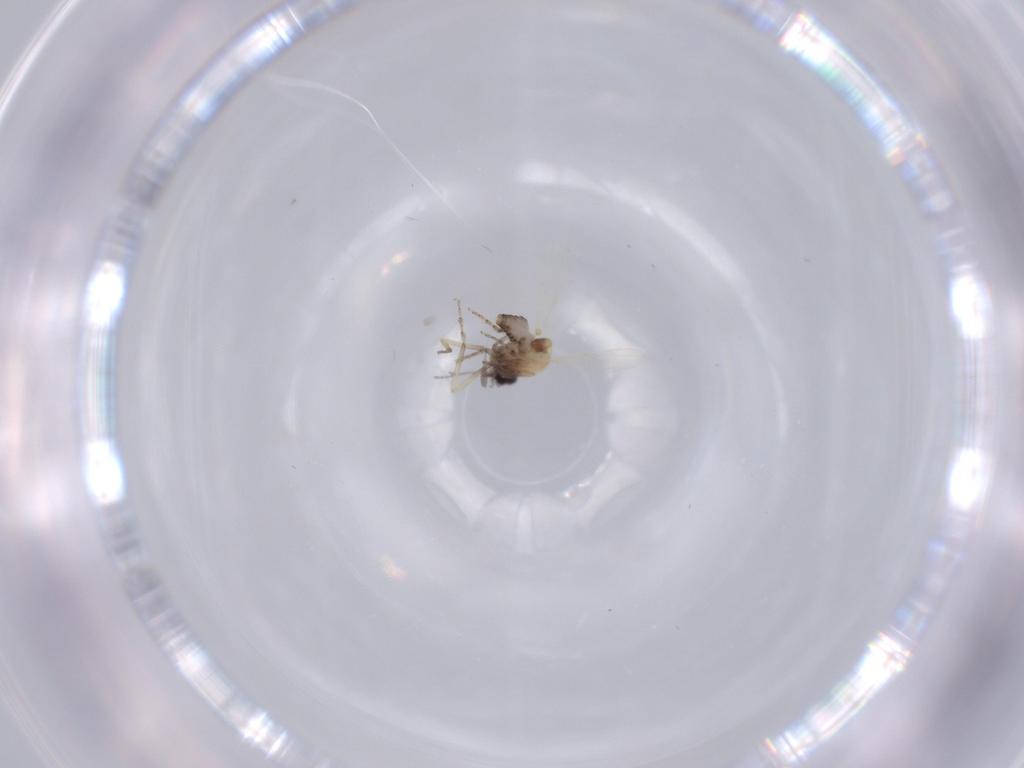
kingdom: Animalia
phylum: Arthropoda
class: Insecta
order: Diptera
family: Ceratopogonidae
